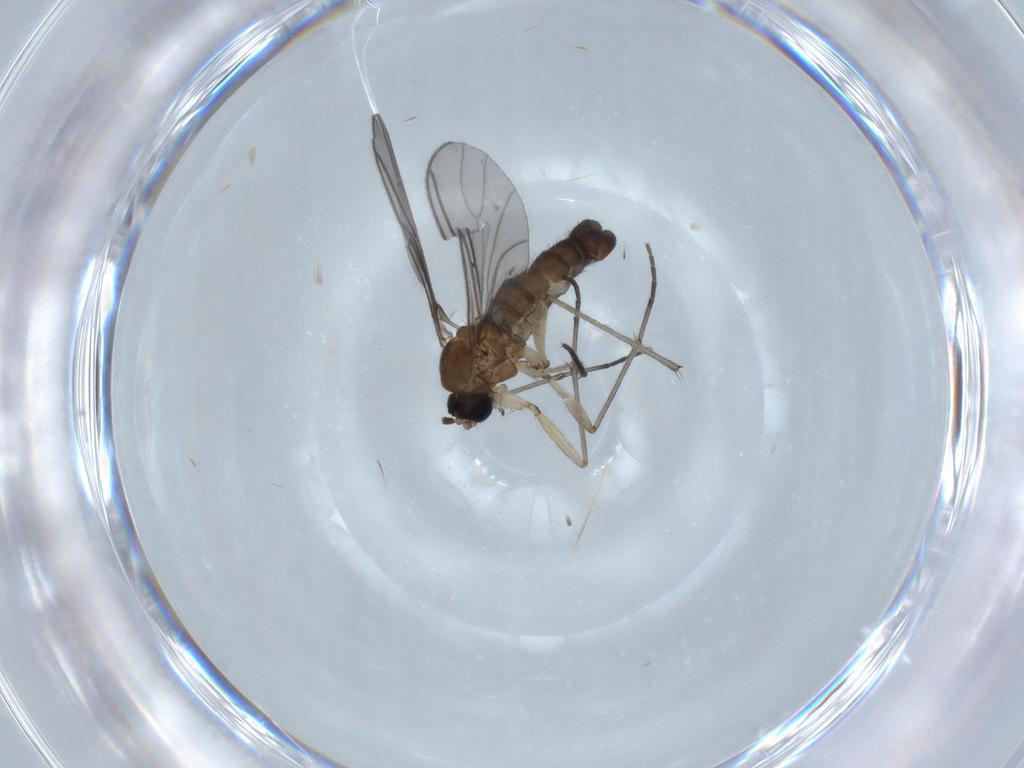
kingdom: Animalia
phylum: Arthropoda
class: Insecta
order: Diptera
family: Sciaridae
